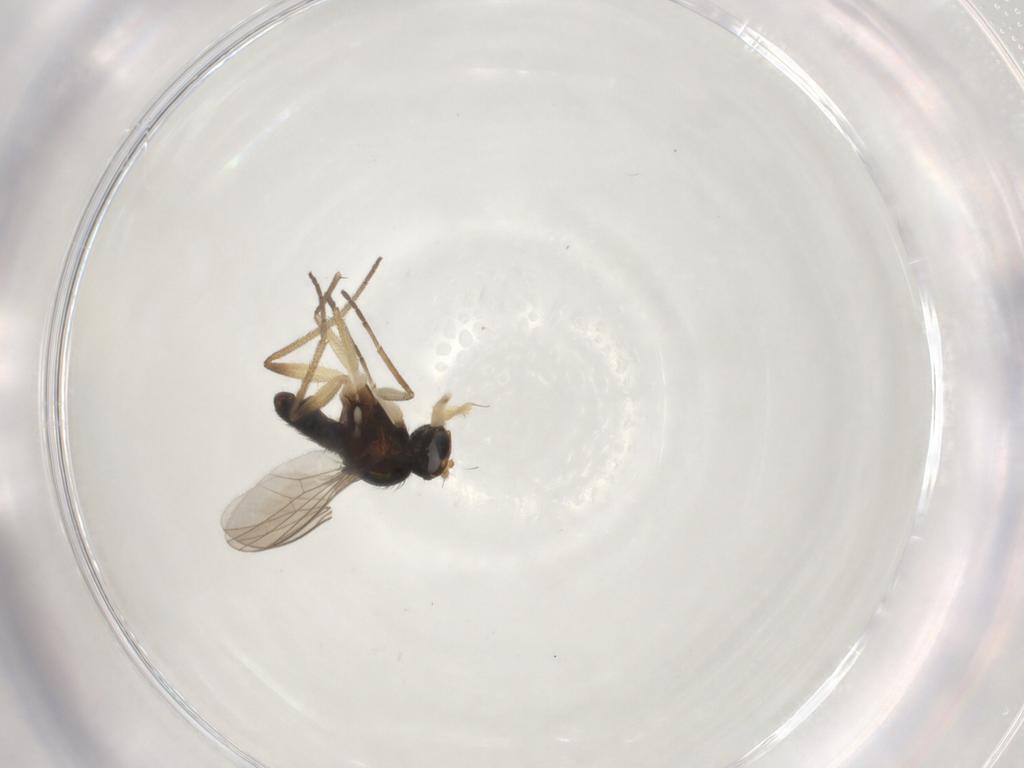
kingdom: Animalia
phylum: Arthropoda
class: Insecta
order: Diptera
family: Dolichopodidae
